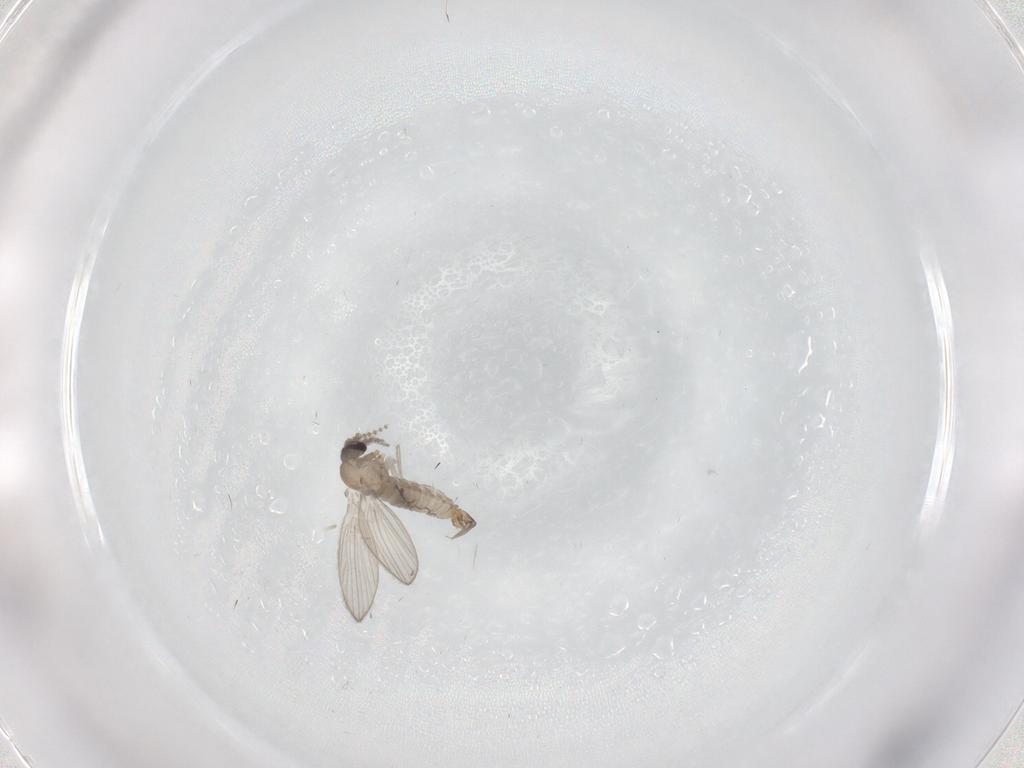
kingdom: Animalia
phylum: Arthropoda
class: Insecta
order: Diptera
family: Psychodidae
